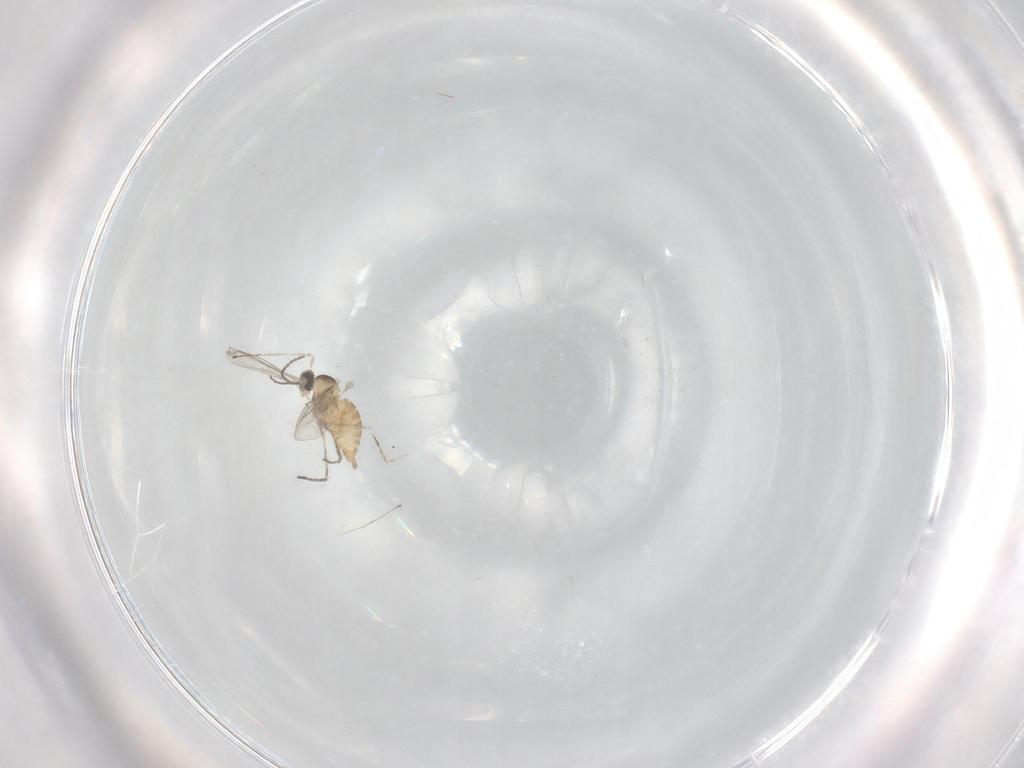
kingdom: Animalia
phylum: Arthropoda
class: Insecta
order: Diptera
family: Cecidomyiidae
